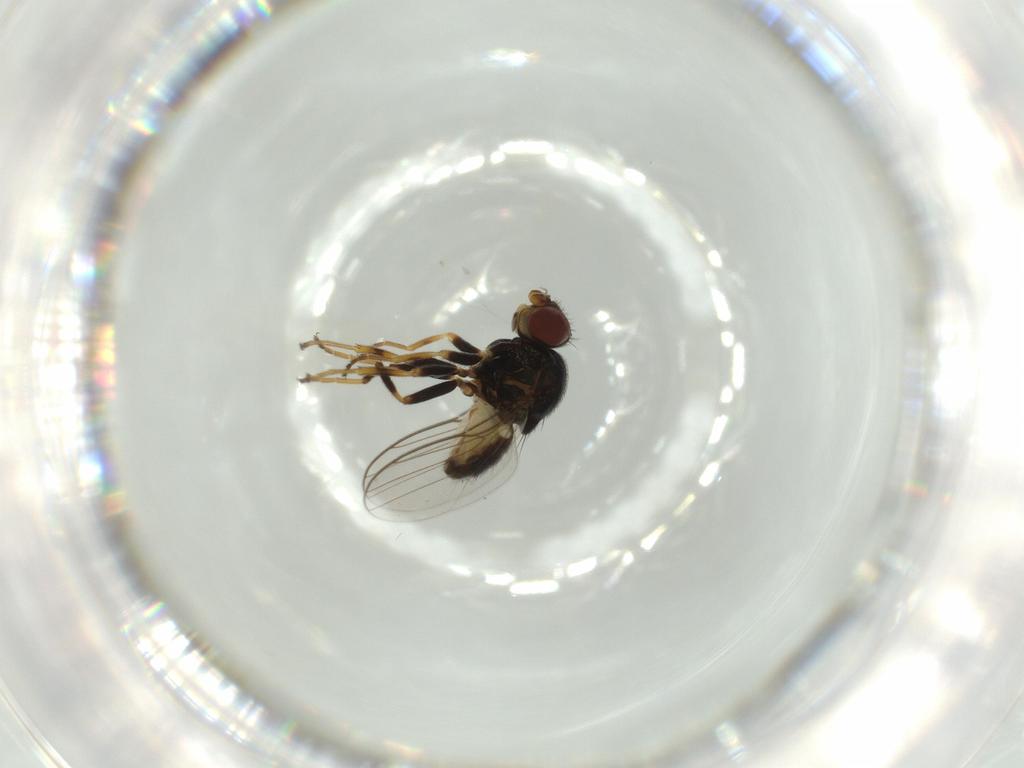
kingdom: Animalia
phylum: Arthropoda
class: Insecta
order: Diptera
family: Chloropidae
